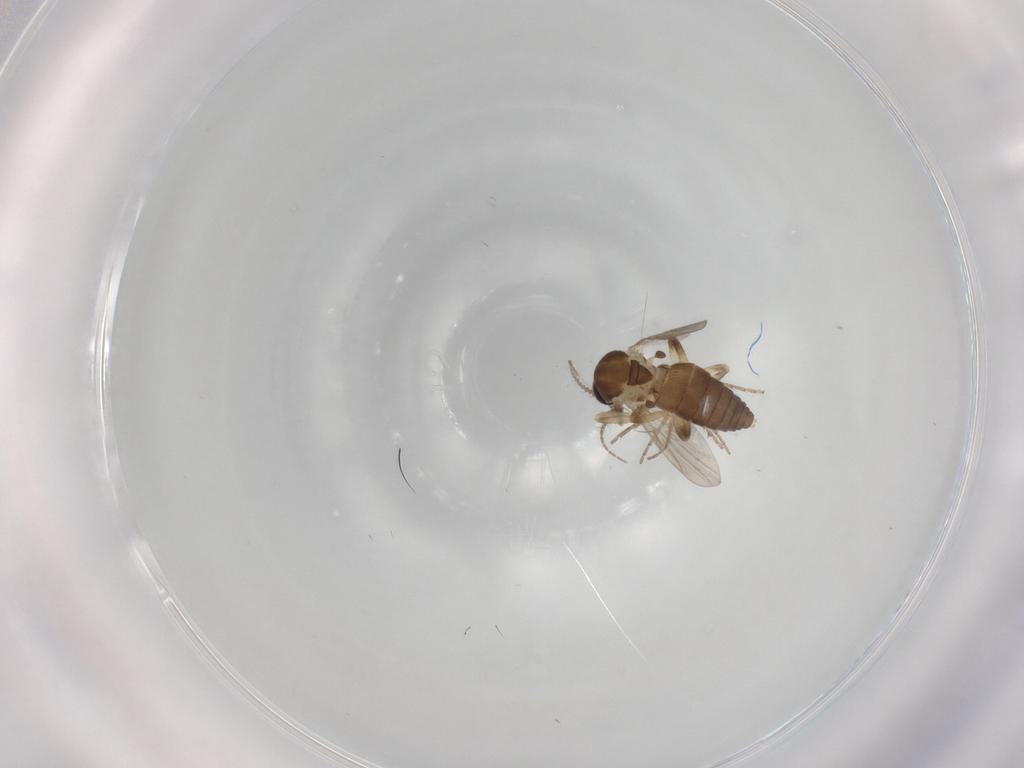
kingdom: Animalia
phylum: Arthropoda
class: Insecta
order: Diptera
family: Ceratopogonidae
